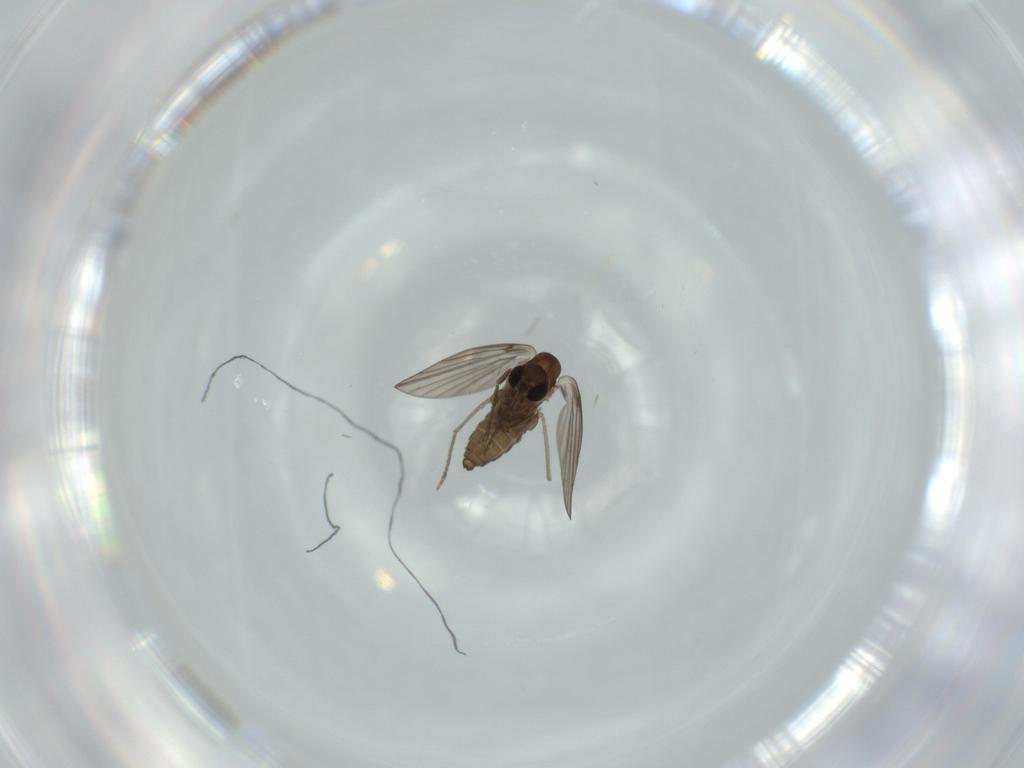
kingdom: Animalia
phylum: Arthropoda
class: Insecta
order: Diptera
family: Psychodidae
